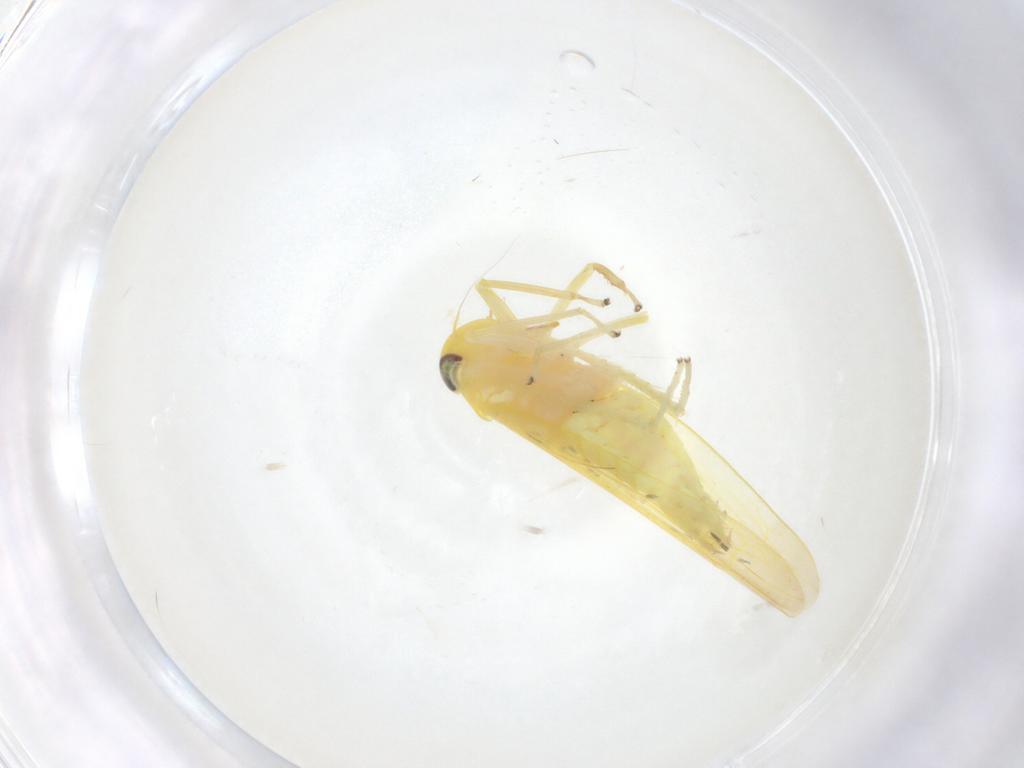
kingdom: Animalia
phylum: Arthropoda
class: Insecta
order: Hemiptera
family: Cicadellidae
